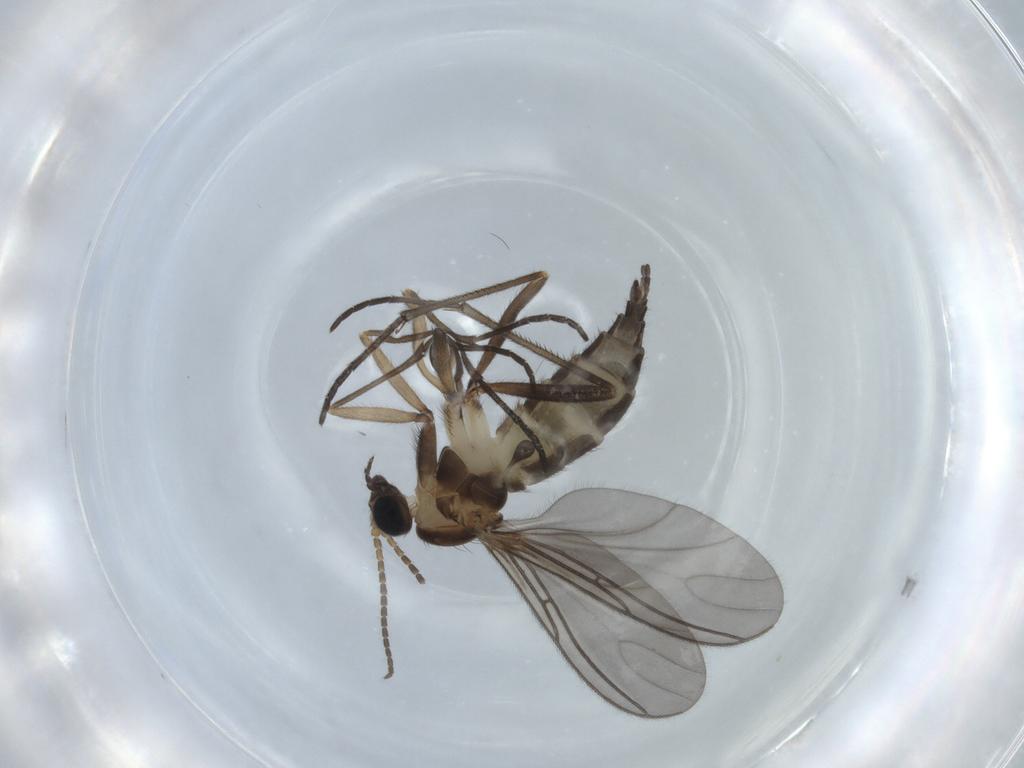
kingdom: Animalia
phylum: Arthropoda
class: Insecta
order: Diptera
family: Sciaridae
